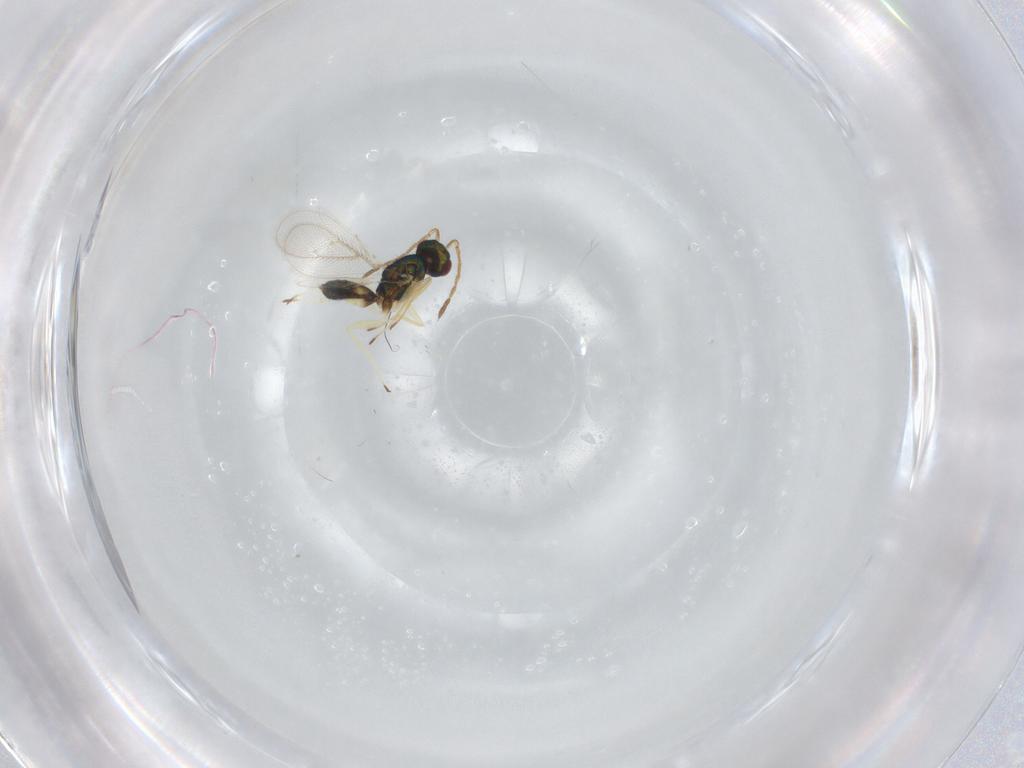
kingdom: Animalia
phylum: Arthropoda
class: Insecta
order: Hymenoptera
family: Eulophidae
